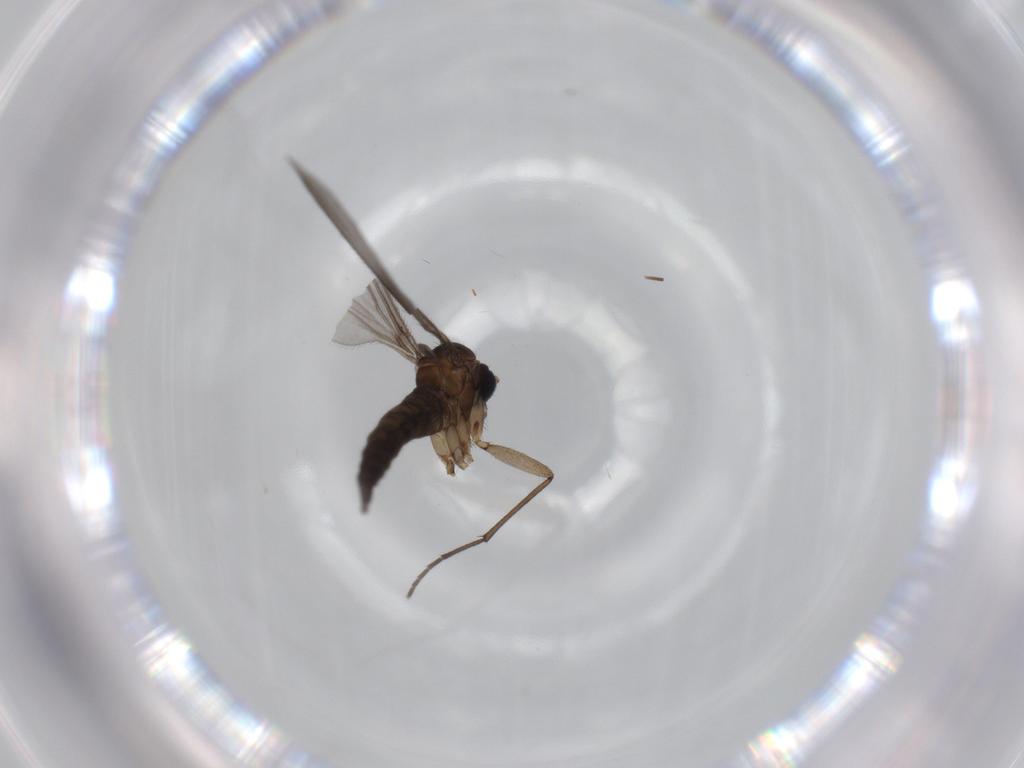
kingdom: Animalia
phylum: Arthropoda
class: Insecta
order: Diptera
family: Sciaridae
